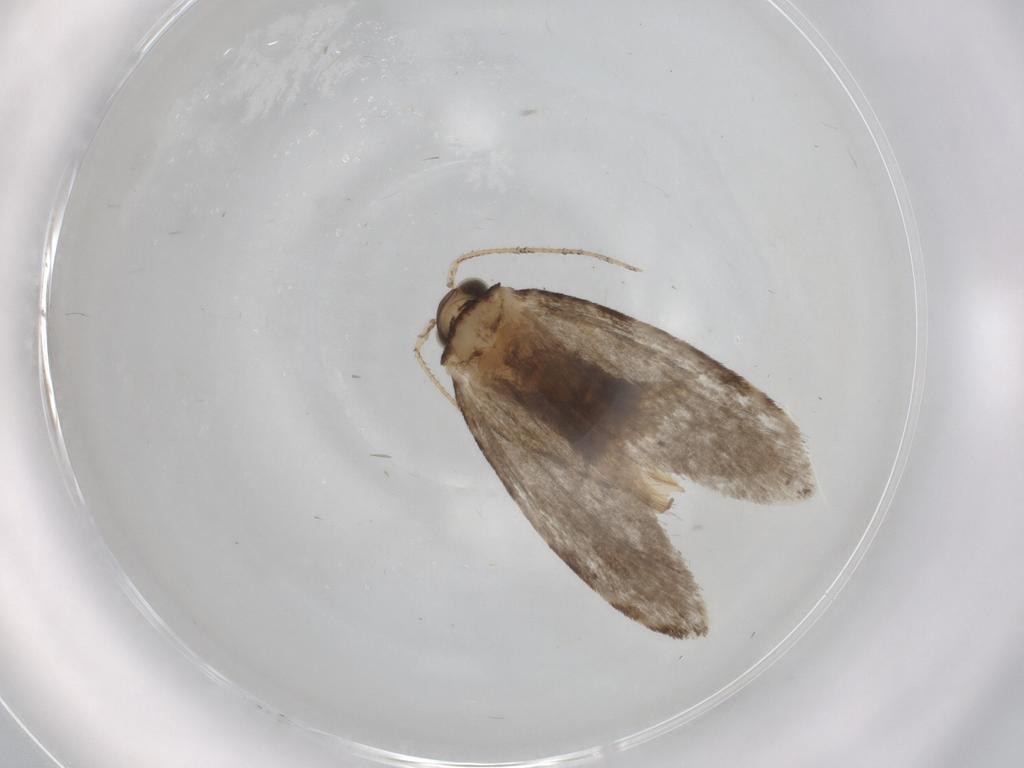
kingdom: Animalia
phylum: Arthropoda
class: Insecta
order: Lepidoptera
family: Tineidae
